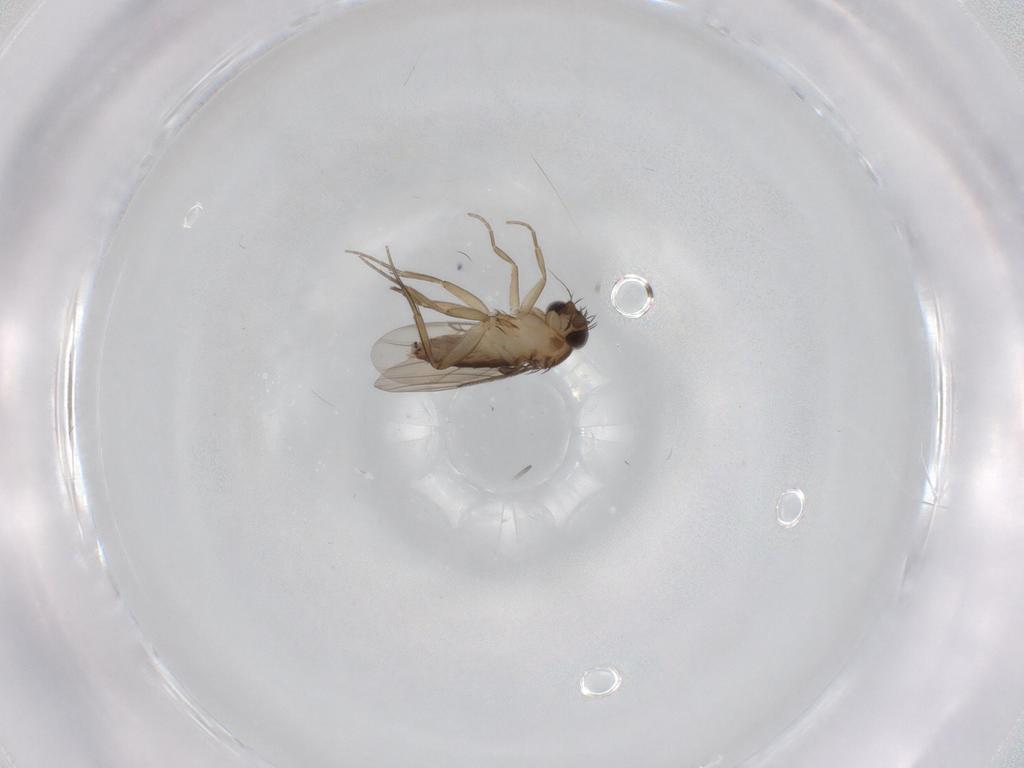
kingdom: Animalia
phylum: Arthropoda
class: Insecta
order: Diptera
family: Phoridae
